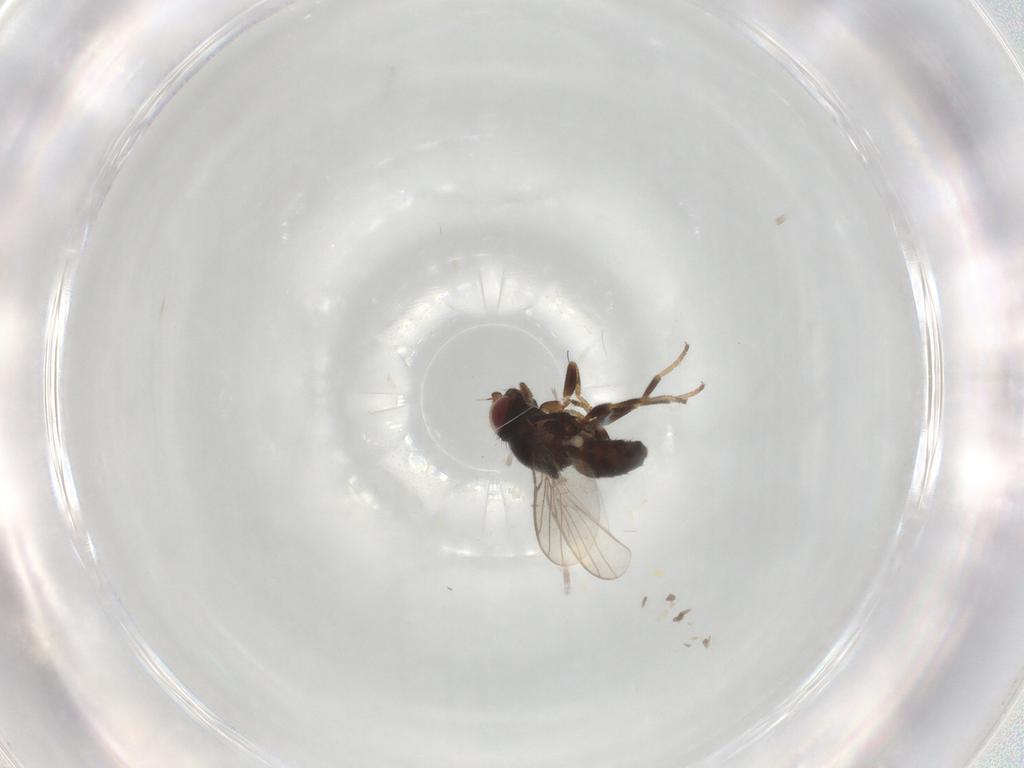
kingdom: Animalia
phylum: Arthropoda
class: Insecta
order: Diptera
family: Chloropidae
